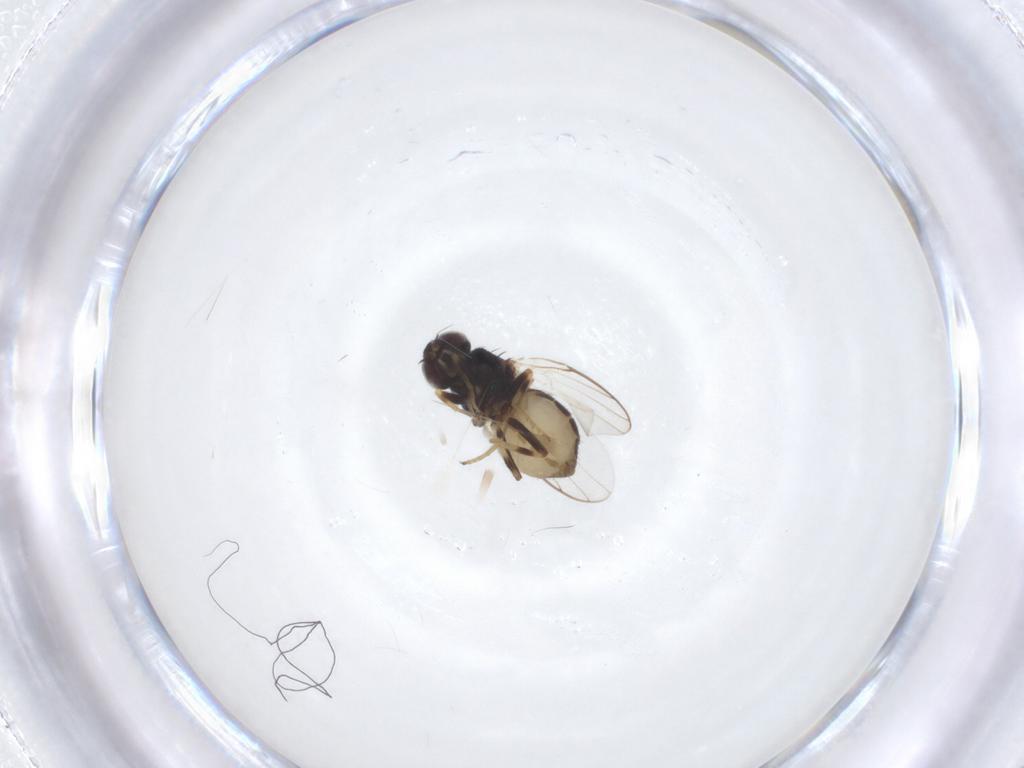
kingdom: Animalia
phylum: Arthropoda
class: Insecta
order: Diptera
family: Chloropidae
